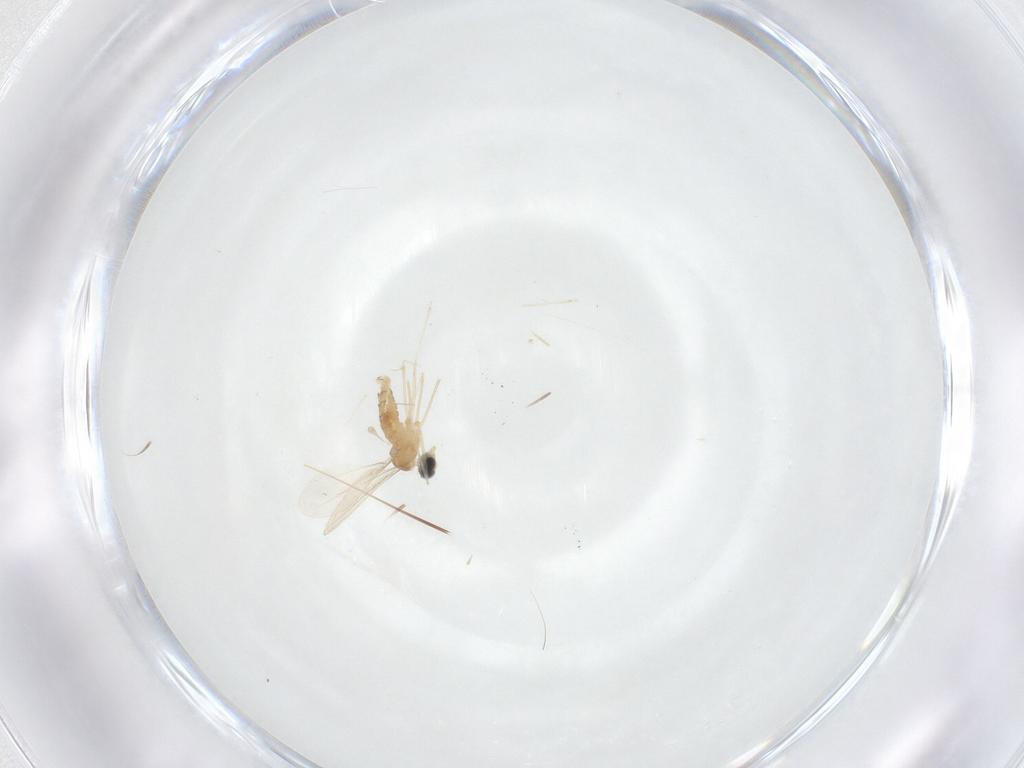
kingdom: Animalia
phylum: Arthropoda
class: Insecta
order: Diptera
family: Cecidomyiidae
